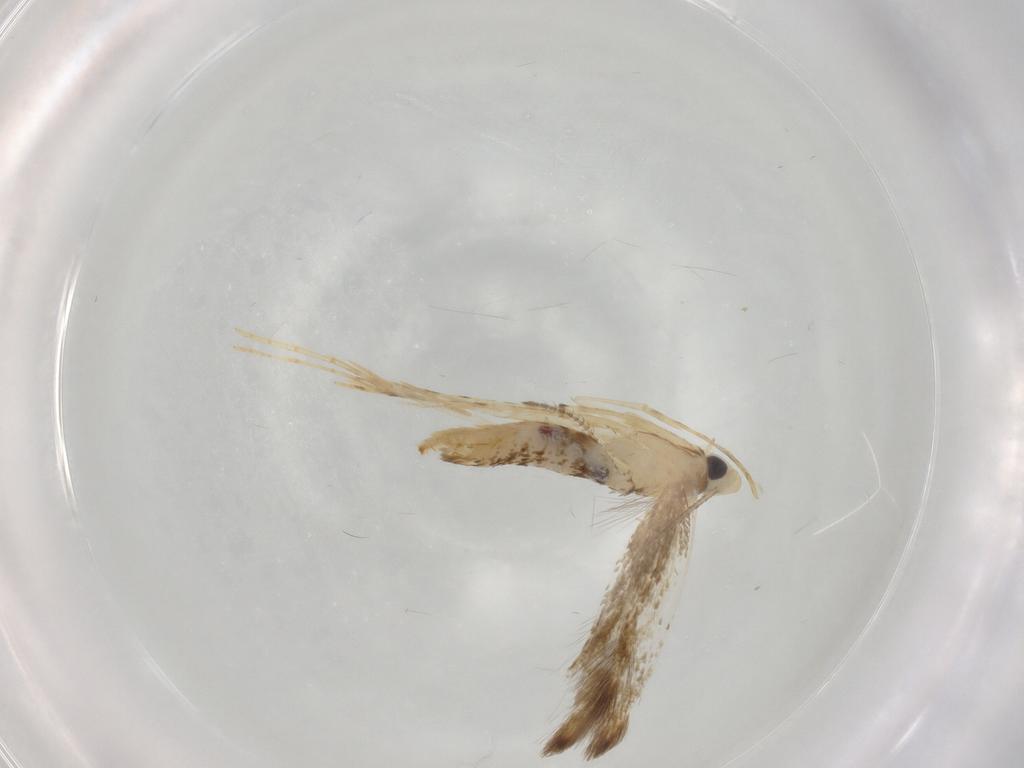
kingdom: Animalia
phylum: Arthropoda
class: Insecta
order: Lepidoptera
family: Psychidae
